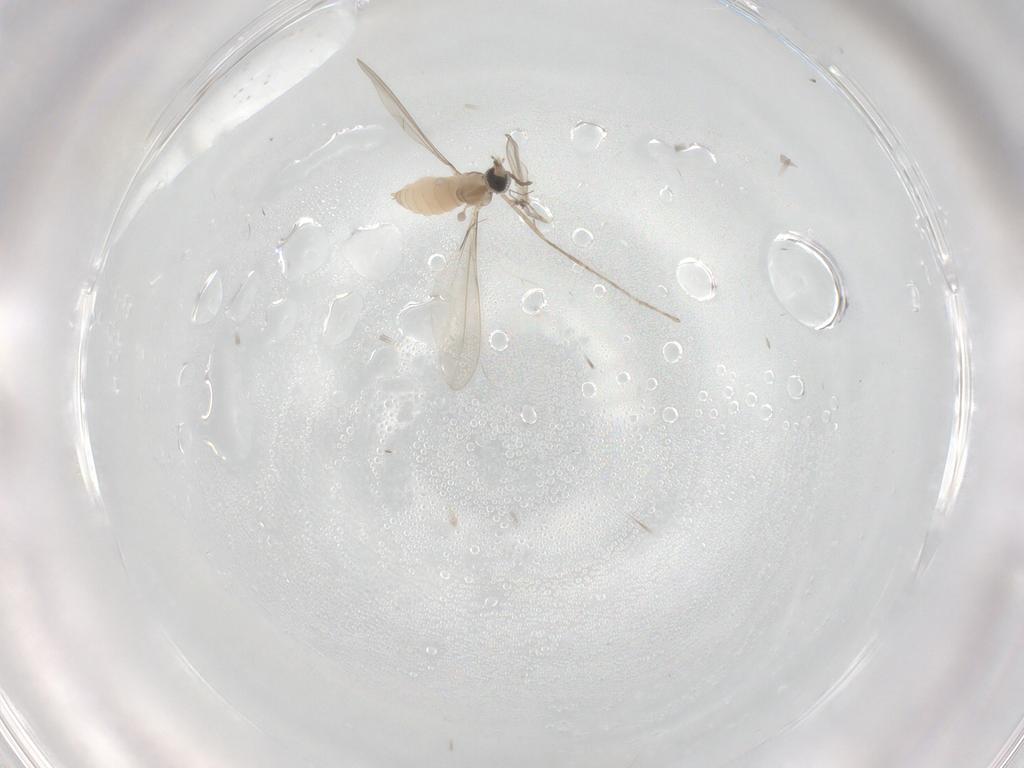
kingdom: Animalia
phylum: Arthropoda
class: Insecta
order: Diptera
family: Cecidomyiidae
